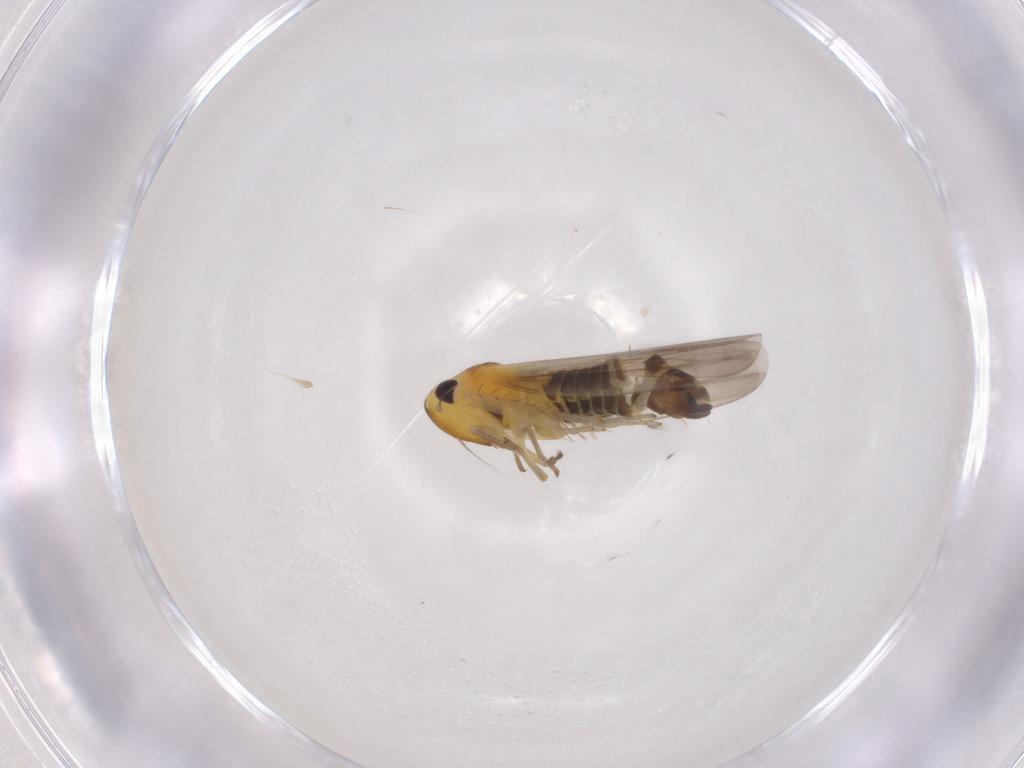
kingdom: Animalia
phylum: Arthropoda
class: Insecta
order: Hemiptera
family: Cicadellidae
